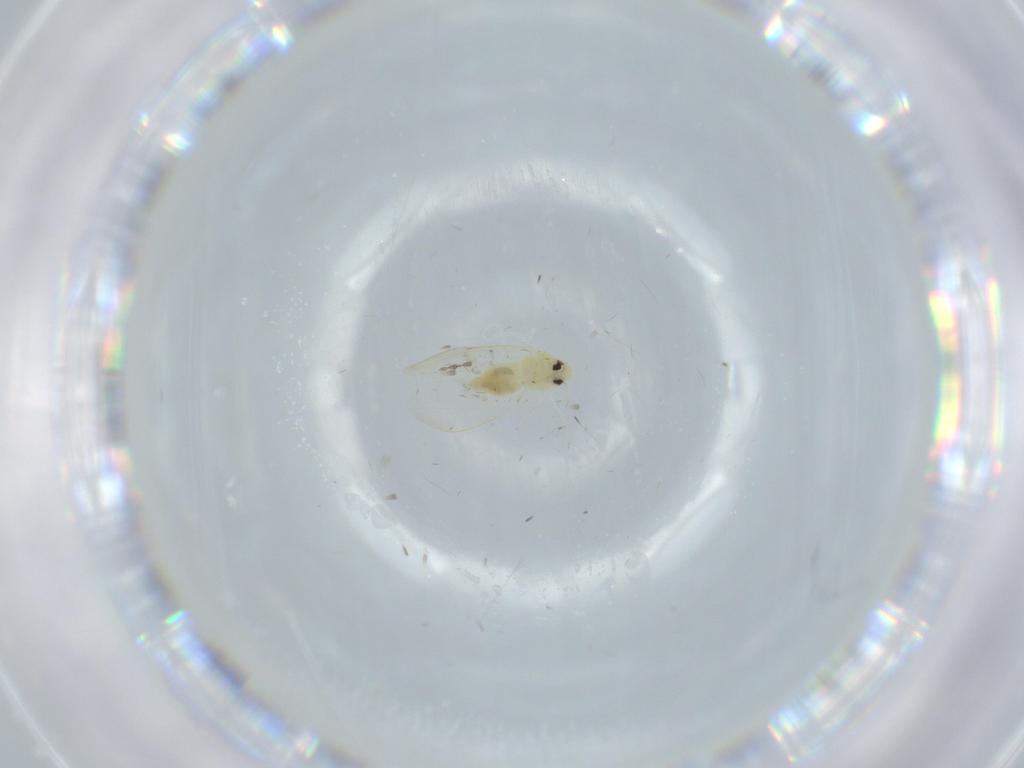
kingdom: Animalia
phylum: Arthropoda
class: Insecta
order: Hemiptera
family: Aleyrodidae
